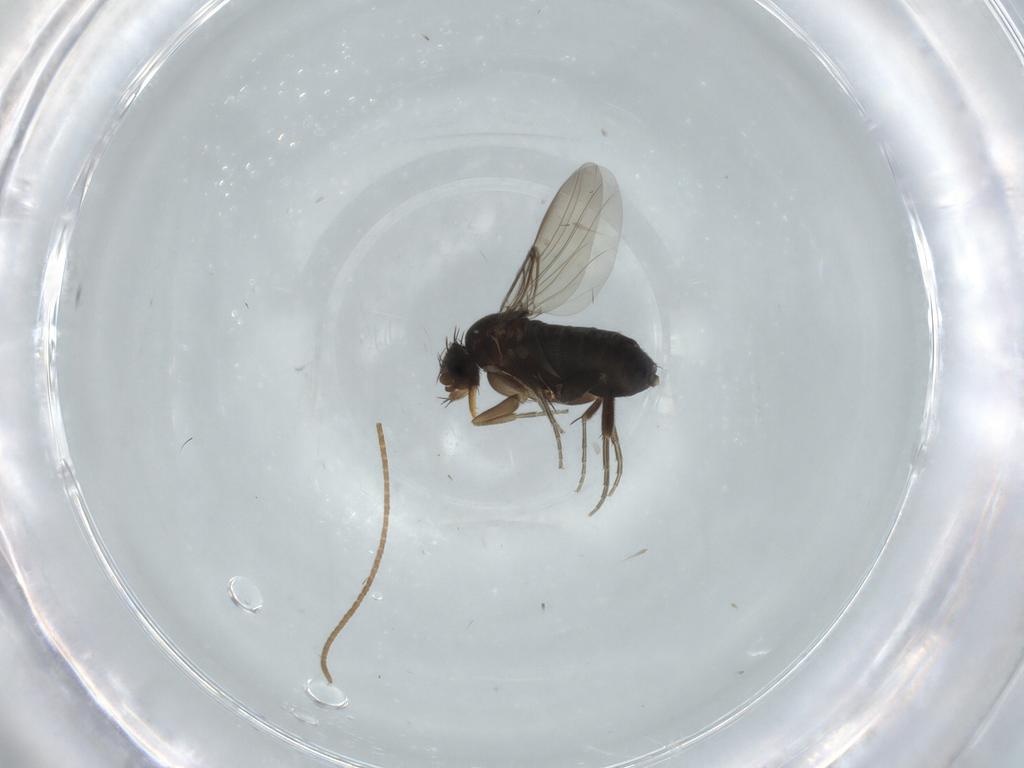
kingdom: Animalia
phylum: Arthropoda
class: Insecta
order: Diptera
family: Phoridae
